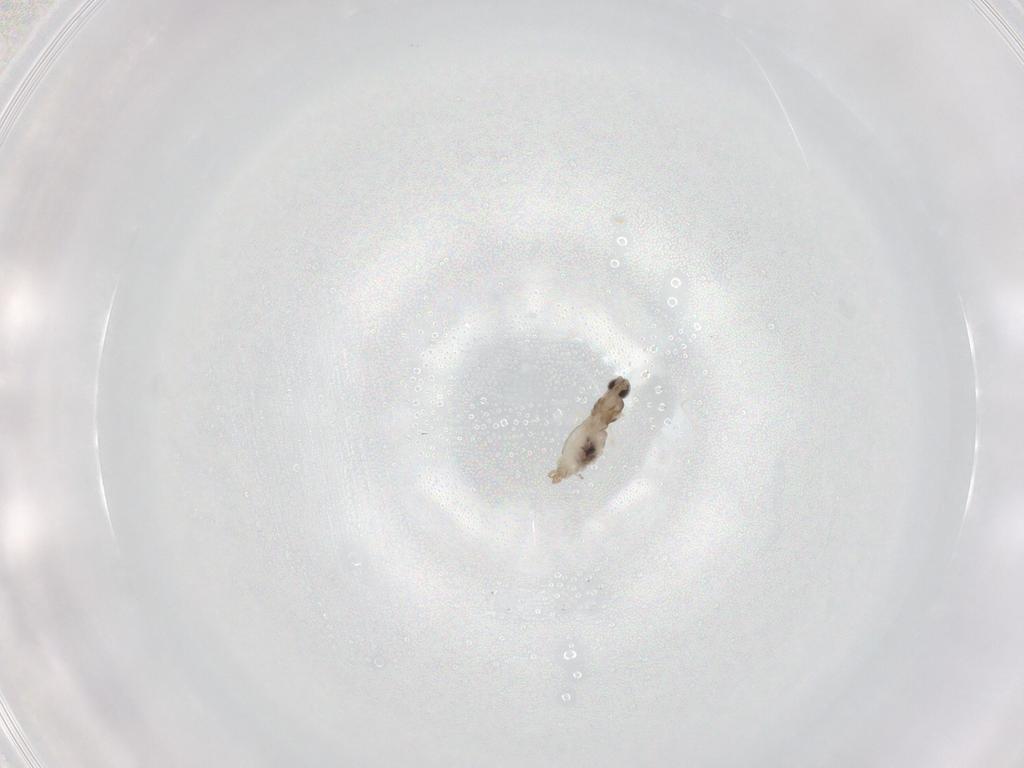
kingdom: Animalia
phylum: Arthropoda
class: Insecta
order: Diptera
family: Cecidomyiidae
